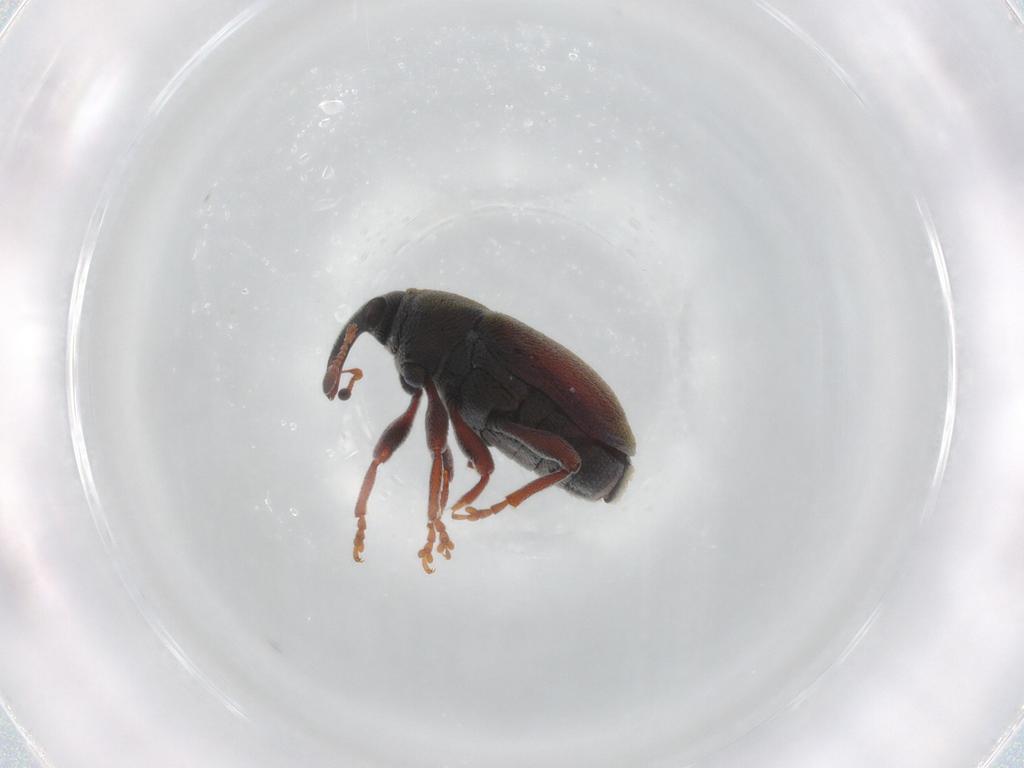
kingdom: Animalia
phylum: Arthropoda
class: Insecta
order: Coleoptera
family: Curculionidae
